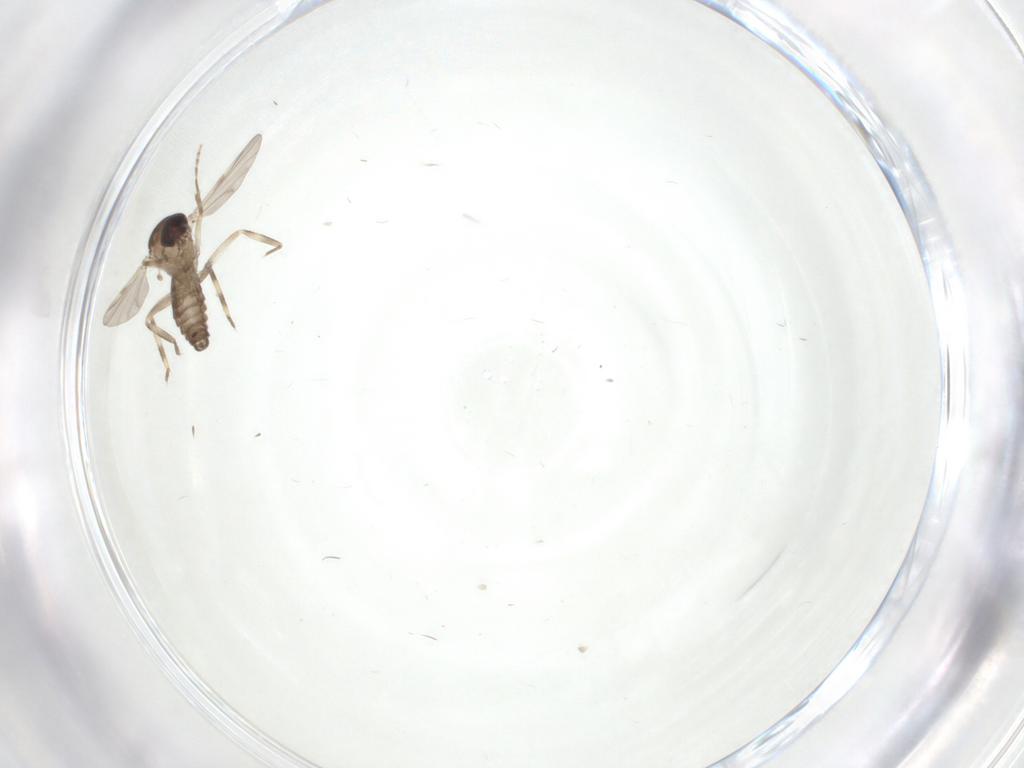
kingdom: Animalia
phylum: Arthropoda
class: Insecta
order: Diptera
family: Ceratopogonidae
